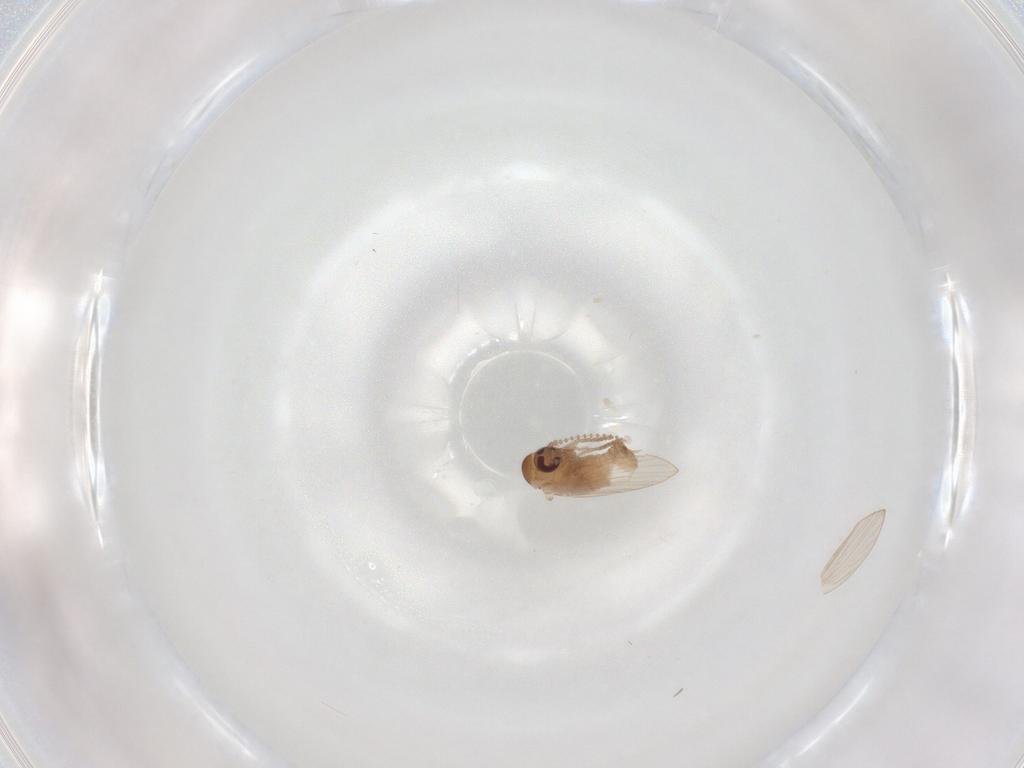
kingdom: Animalia
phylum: Arthropoda
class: Insecta
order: Diptera
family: Psychodidae
